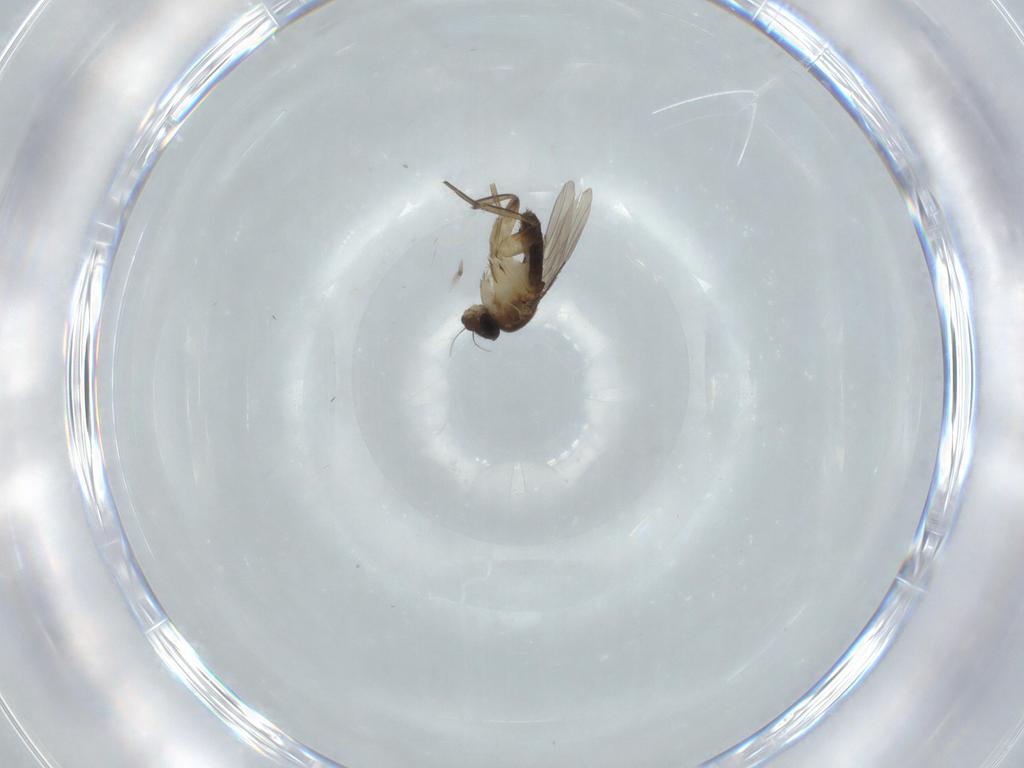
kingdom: Animalia
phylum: Arthropoda
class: Insecta
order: Diptera
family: Phoridae
